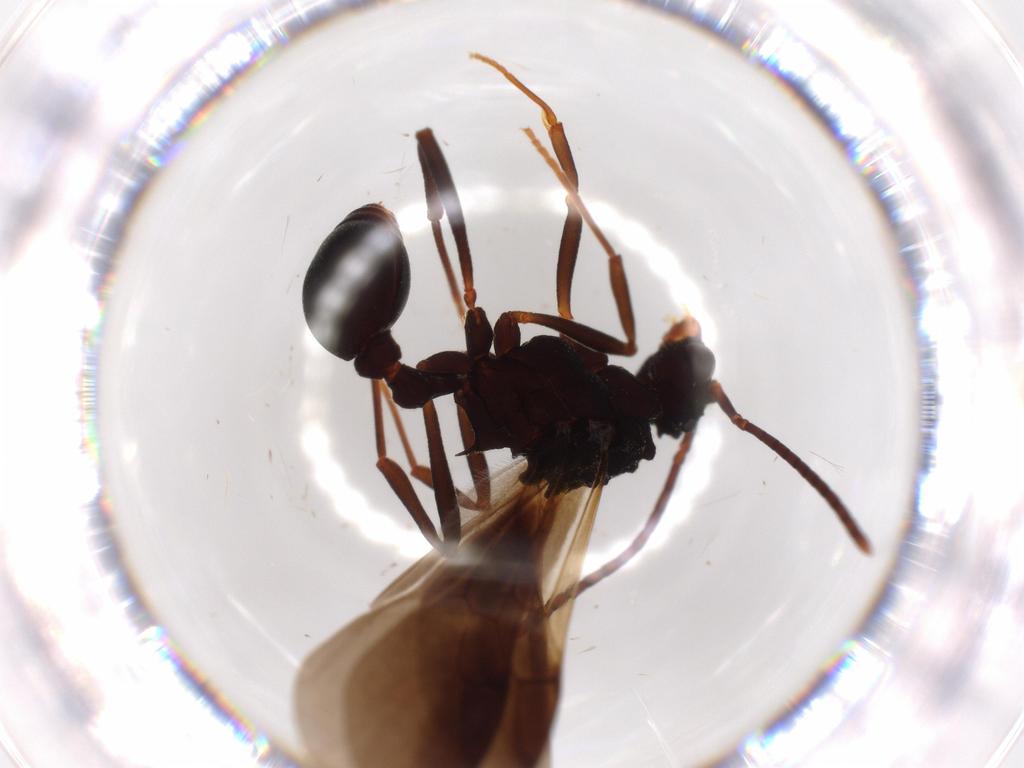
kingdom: Animalia
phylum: Arthropoda
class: Insecta
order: Hymenoptera
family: Formicidae
